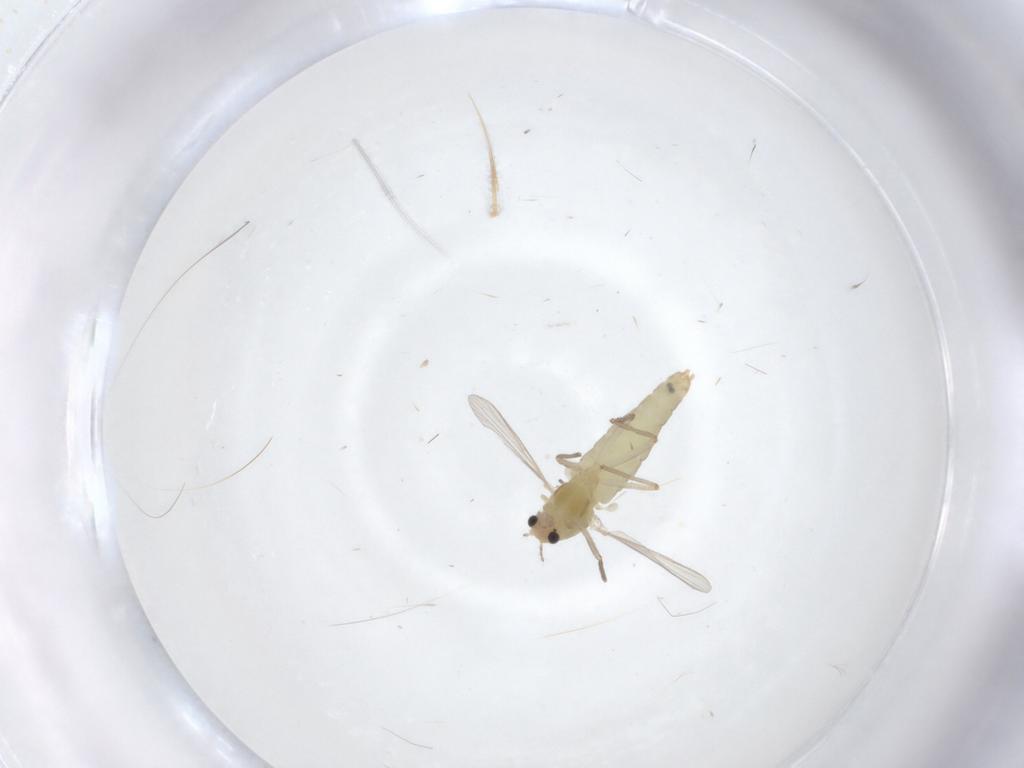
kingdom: Animalia
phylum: Arthropoda
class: Insecta
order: Diptera
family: Chironomidae
